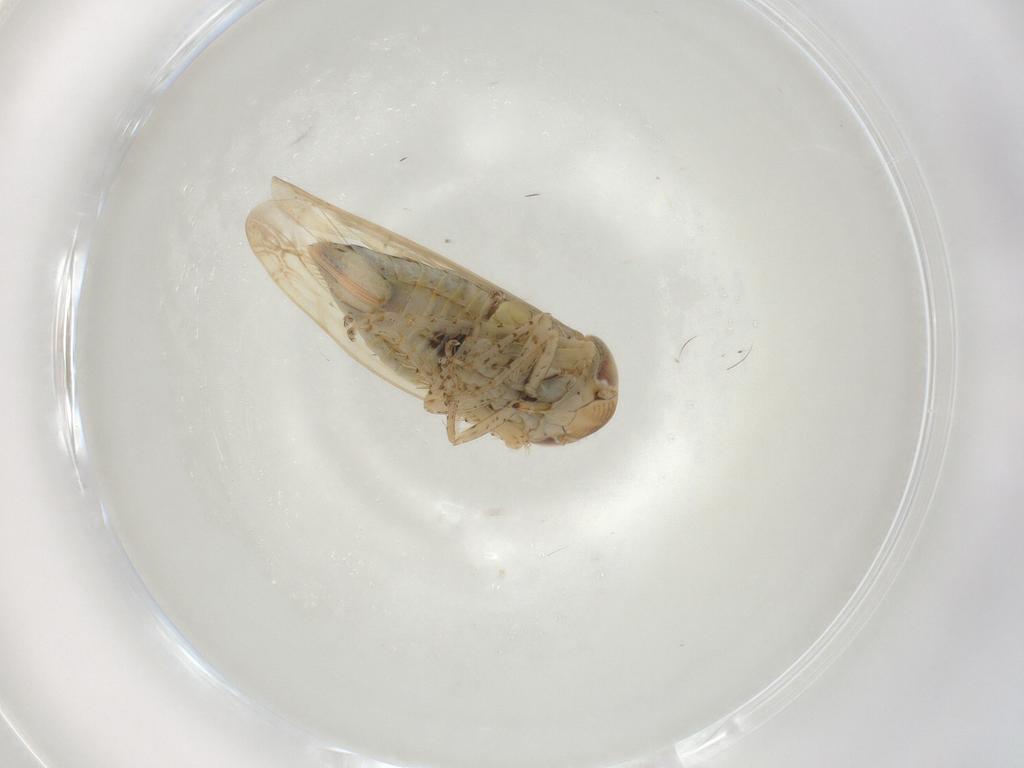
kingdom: Animalia
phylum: Arthropoda
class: Insecta
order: Hemiptera
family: Cicadellidae
